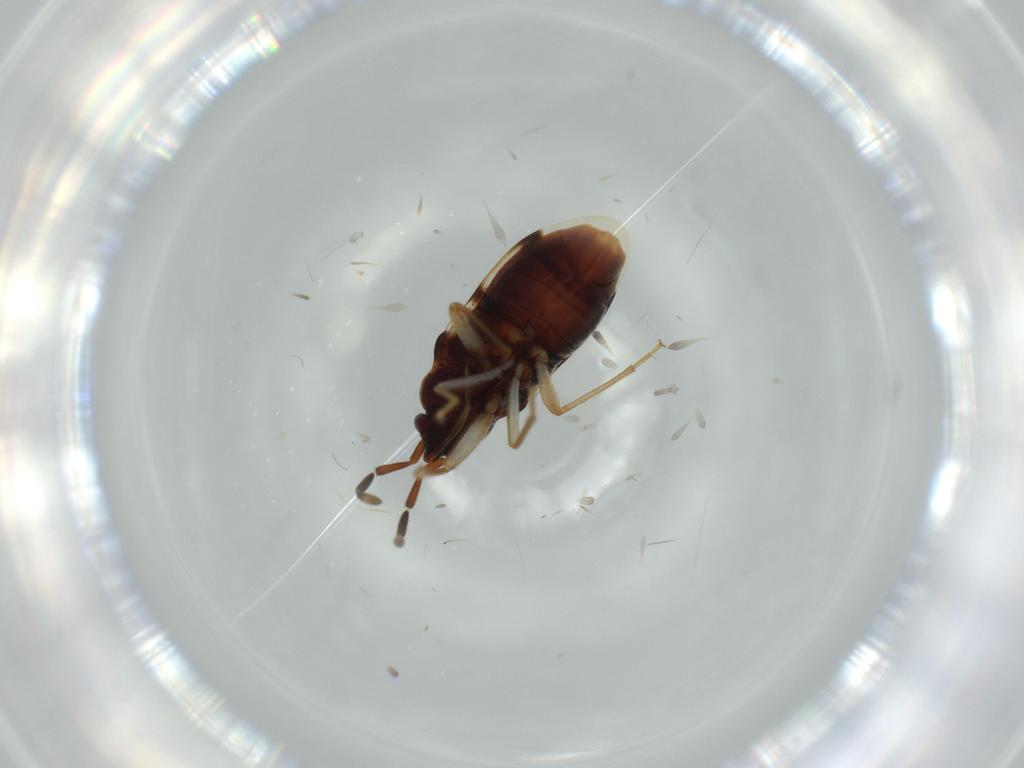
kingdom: Animalia
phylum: Arthropoda
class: Insecta
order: Hemiptera
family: Rhyparochromidae
